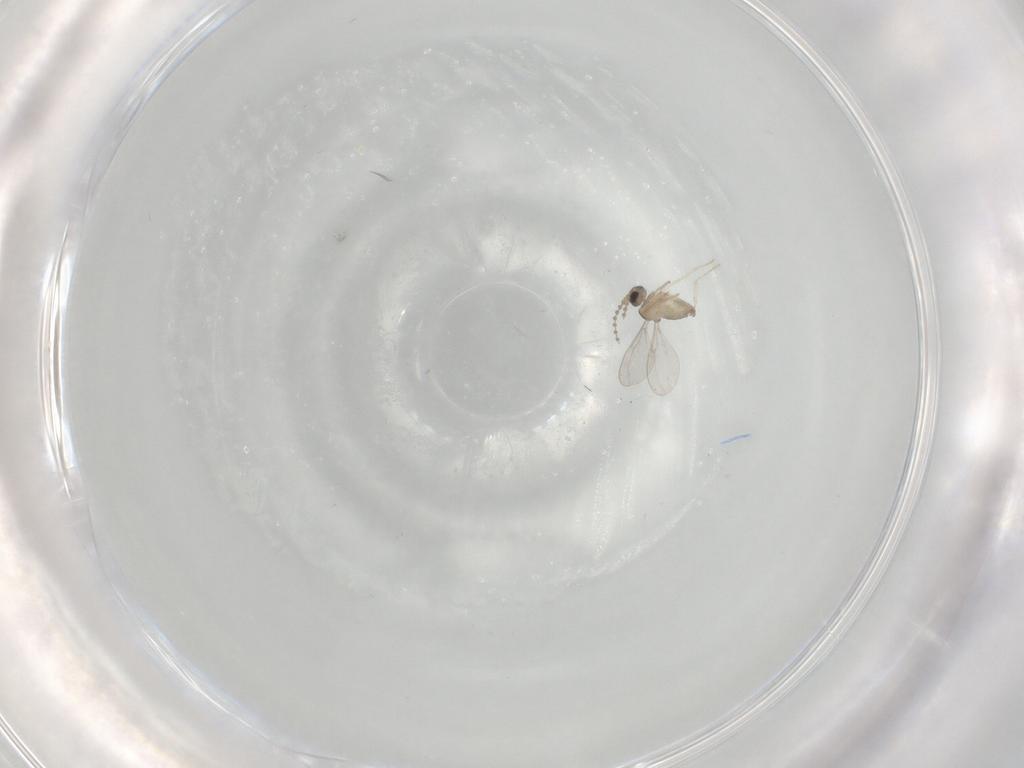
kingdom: Animalia
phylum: Arthropoda
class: Insecta
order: Diptera
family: Cecidomyiidae
